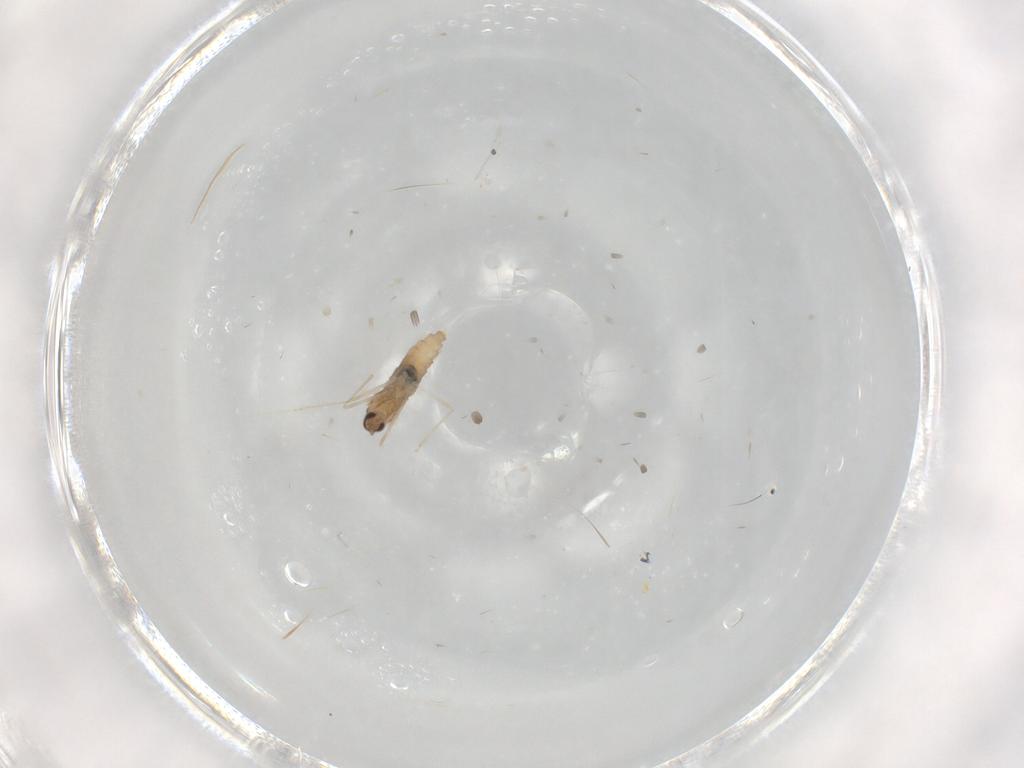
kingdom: Animalia
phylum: Arthropoda
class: Insecta
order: Diptera
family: Cecidomyiidae
